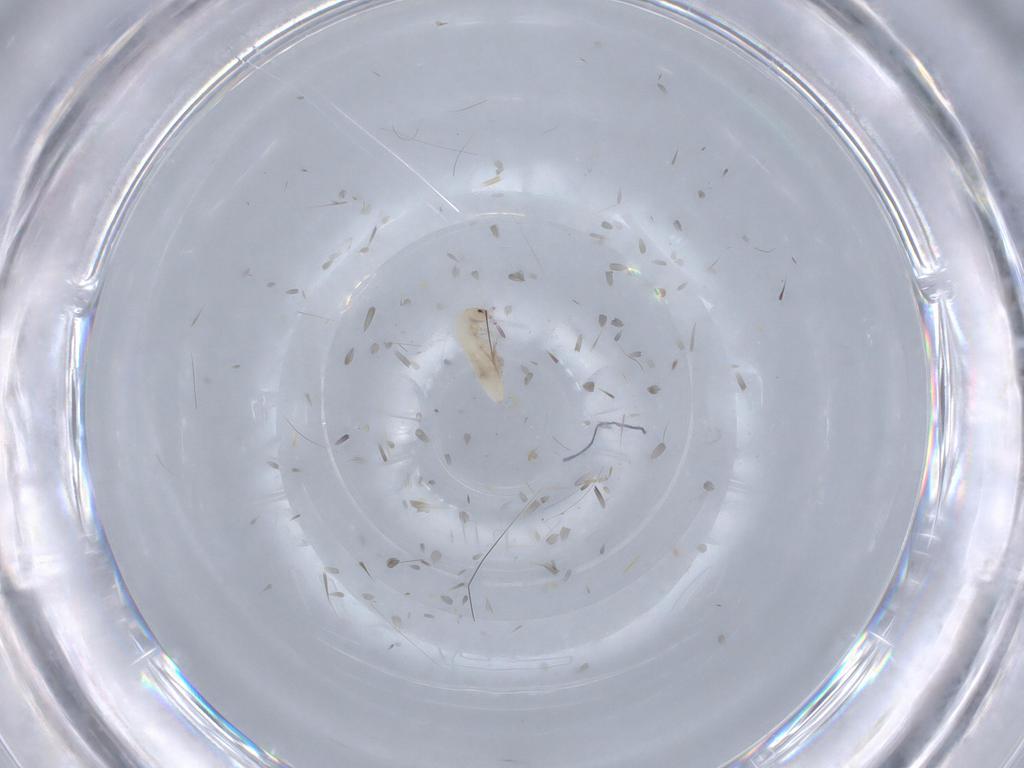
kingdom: Animalia
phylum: Arthropoda
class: Collembola
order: Entomobryomorpha
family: Entomobryidae
